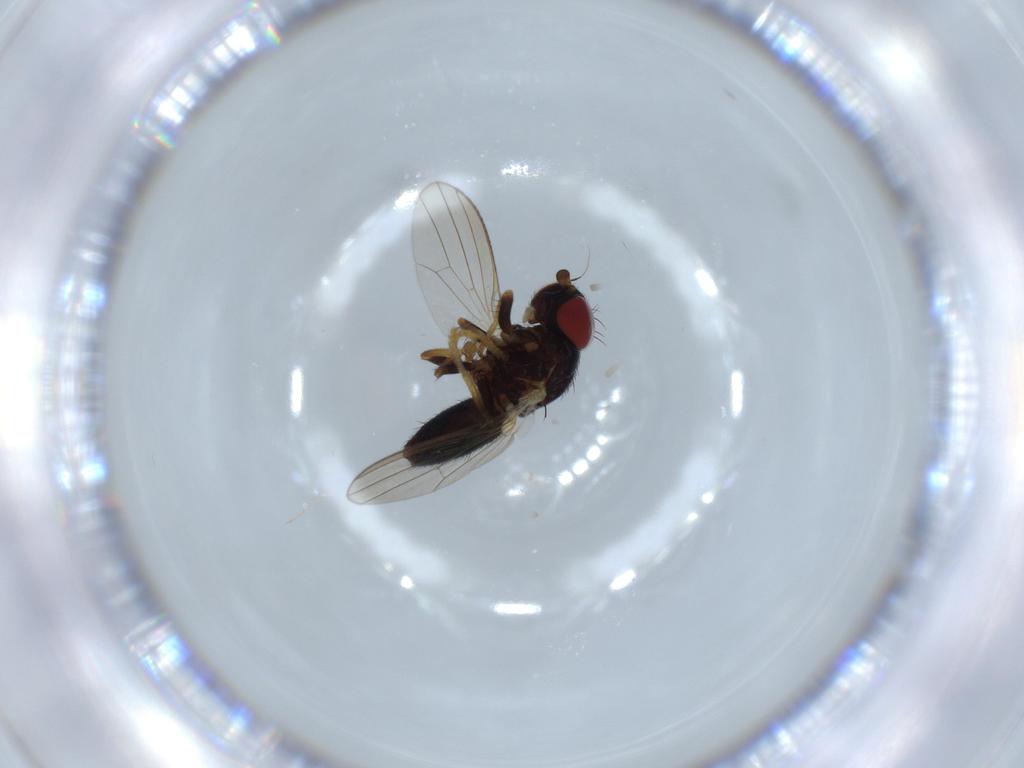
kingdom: Animalia
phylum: Arthropoda
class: Insecta
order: Diptera
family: Chamaemyiidae
